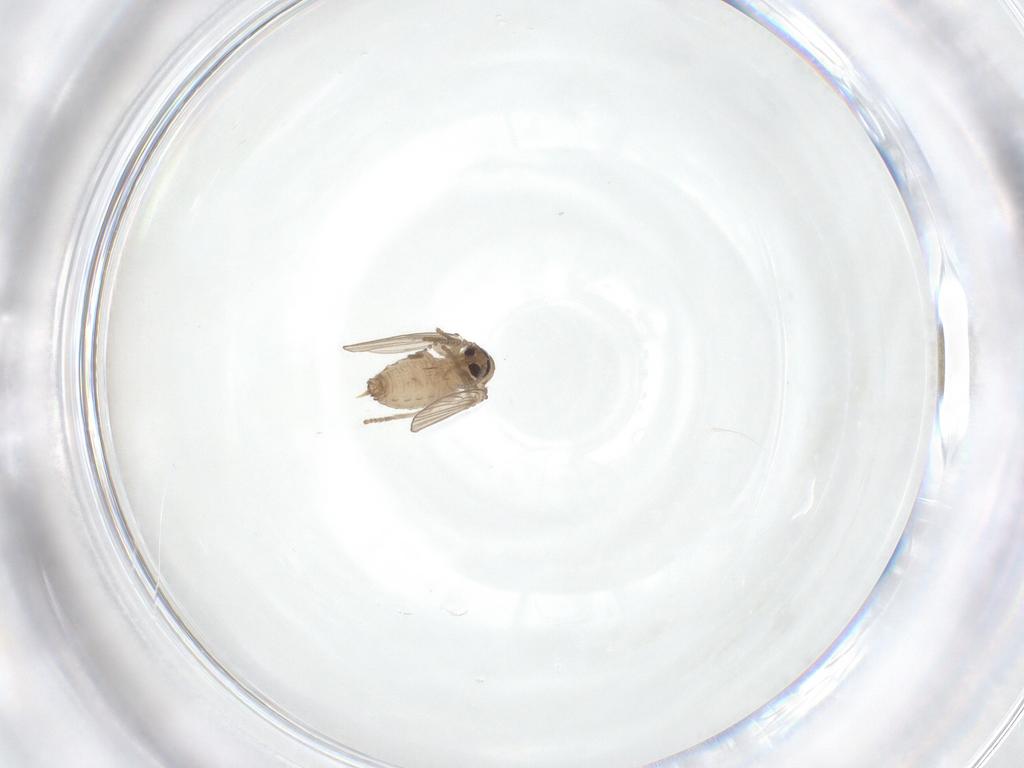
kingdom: Animalia
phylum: Arthropoda
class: Insecta
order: Diptera
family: Psychodidae
